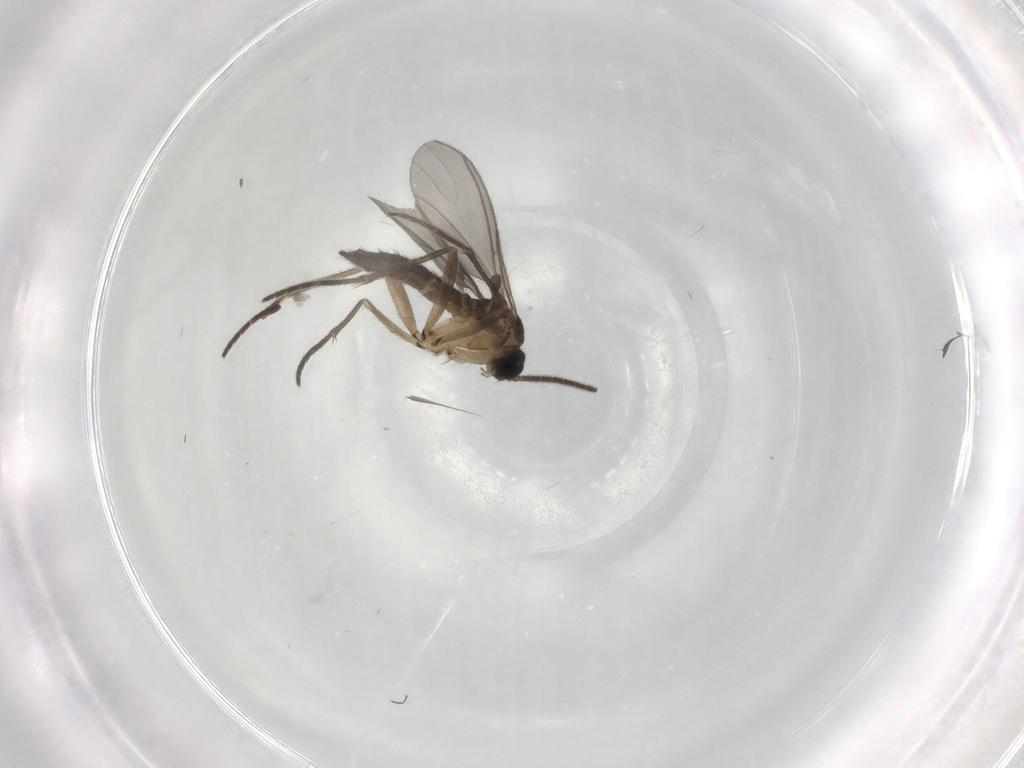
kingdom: Animalia
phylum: Arthropoda
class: Insecta
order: Diptera
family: Sciaridae
